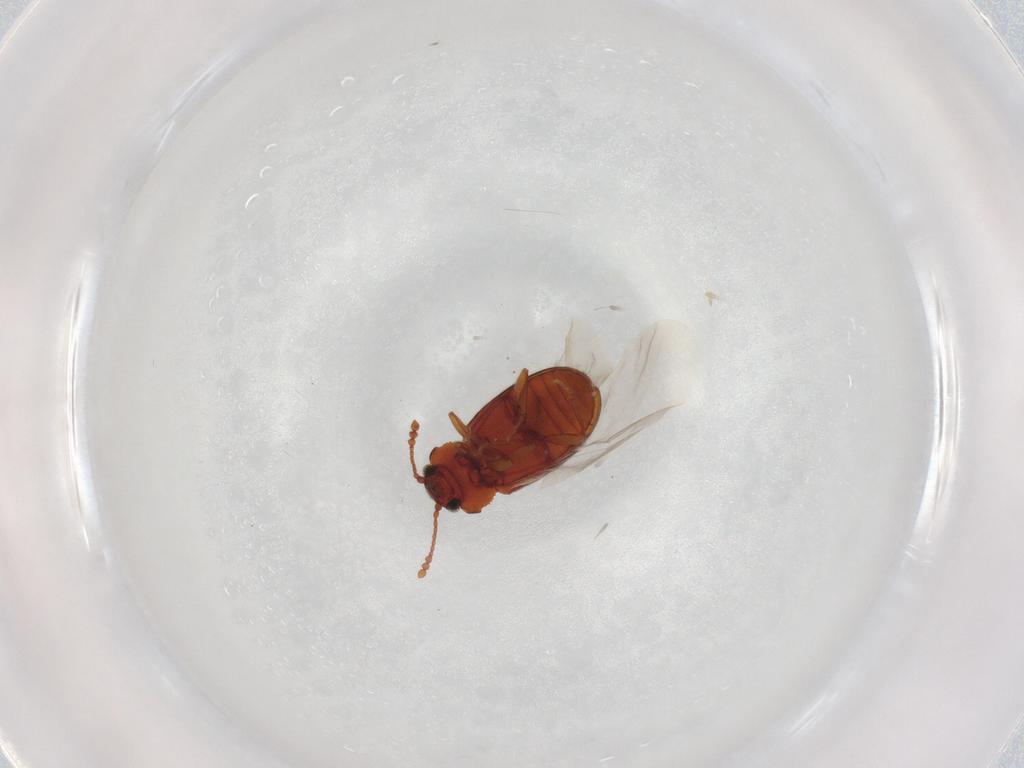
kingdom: Animalia
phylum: Arthropoda
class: Insecta
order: Coleoptera
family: Cryptophagidae
